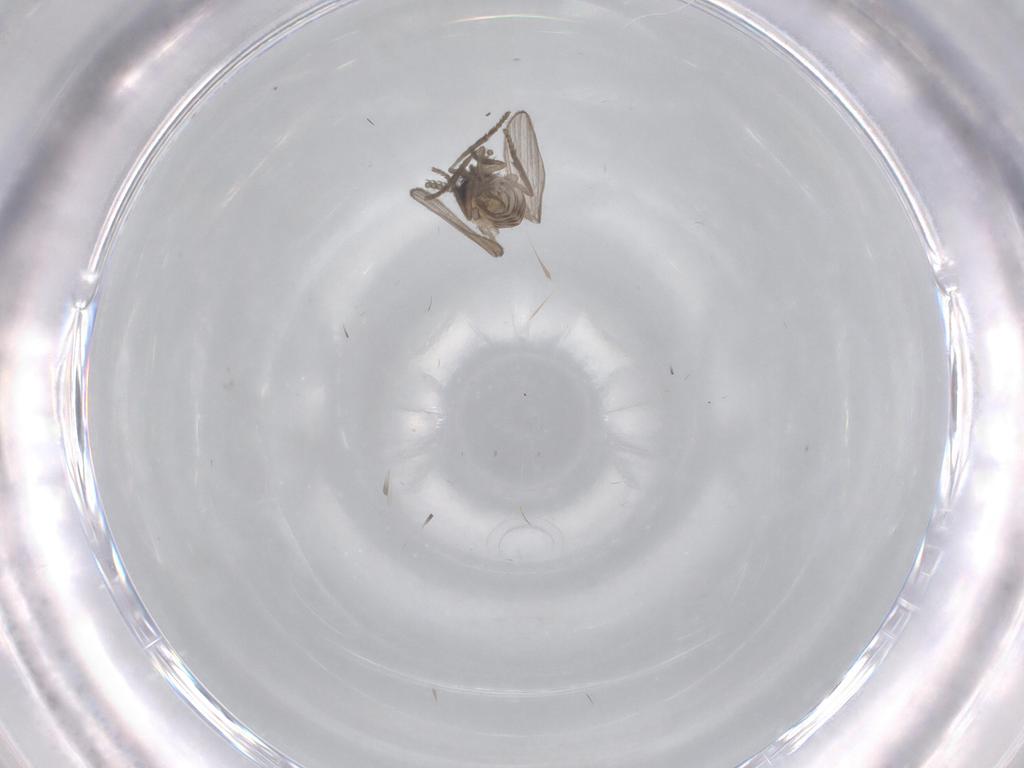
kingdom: Animalia
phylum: Arthropoda
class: Insecta
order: Diptera
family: Psychodidae
